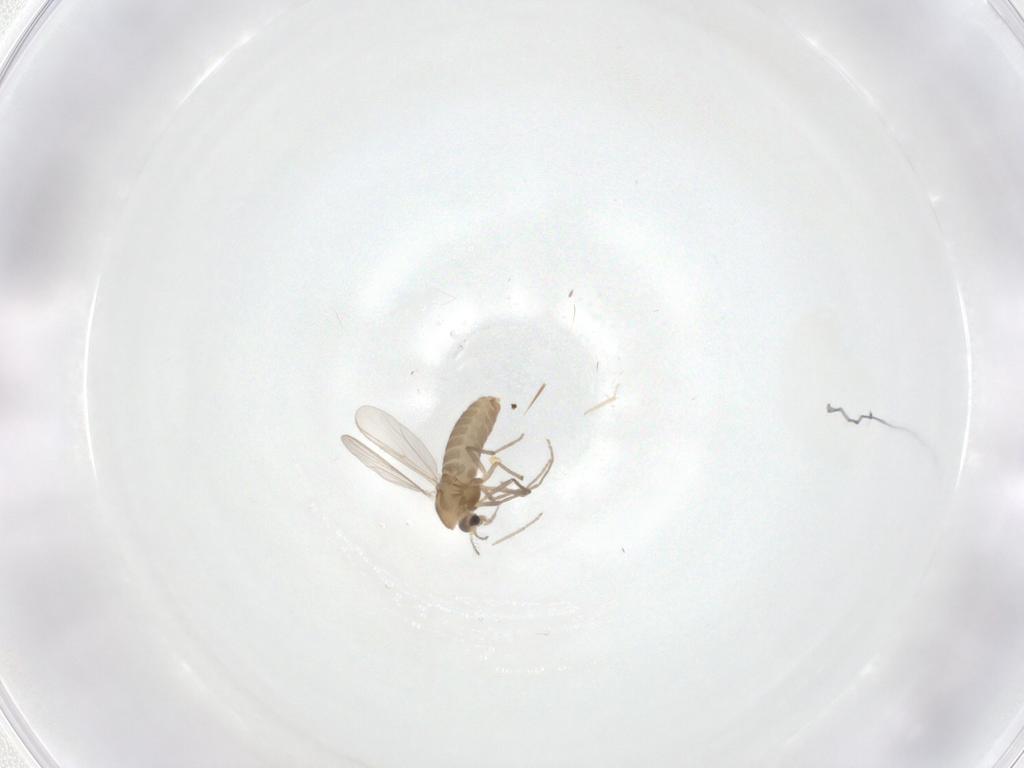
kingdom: Animalia
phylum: Arthropoda
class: Insecta
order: Diptera
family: Chironomidae
